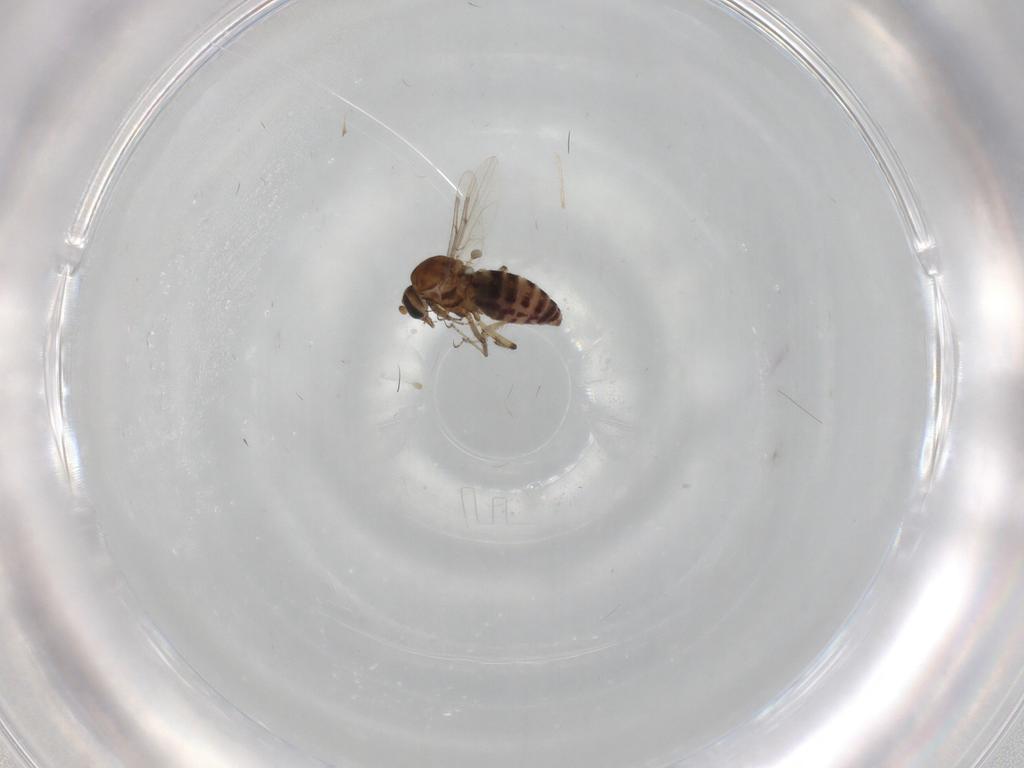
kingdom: Animalia
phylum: Arthropoda
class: Insecta
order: Diptera
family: Ceratopogonidae
